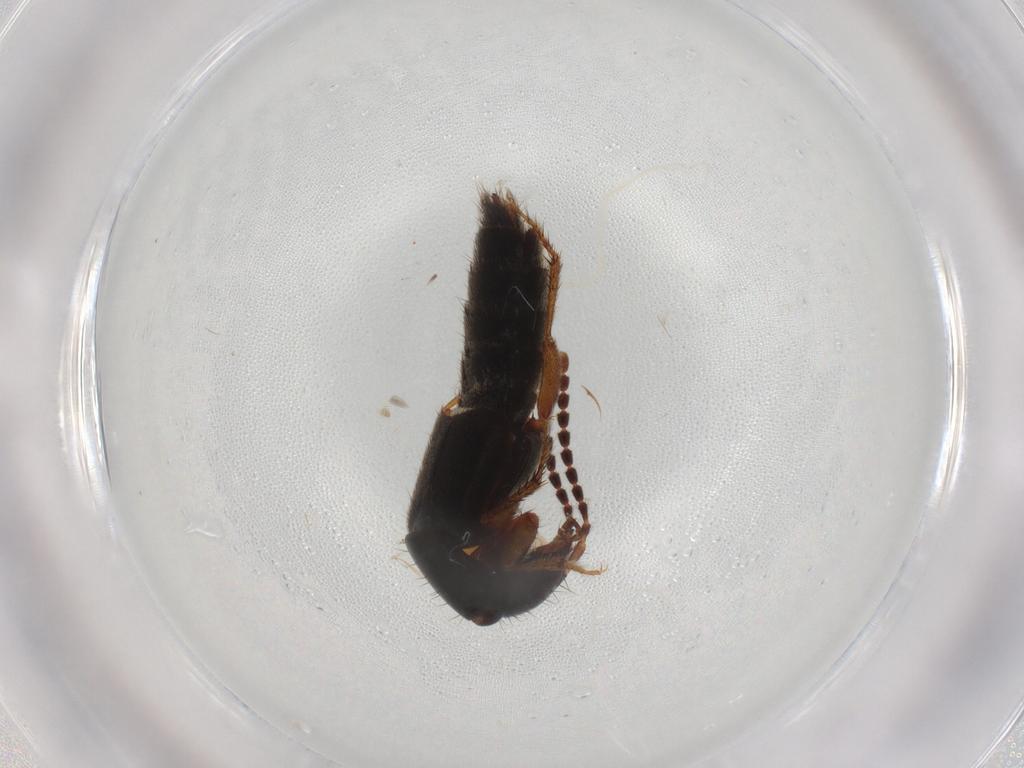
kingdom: Animalia
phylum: Arthropoda
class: Insecta
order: Coleoptera
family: Staphylinidae
